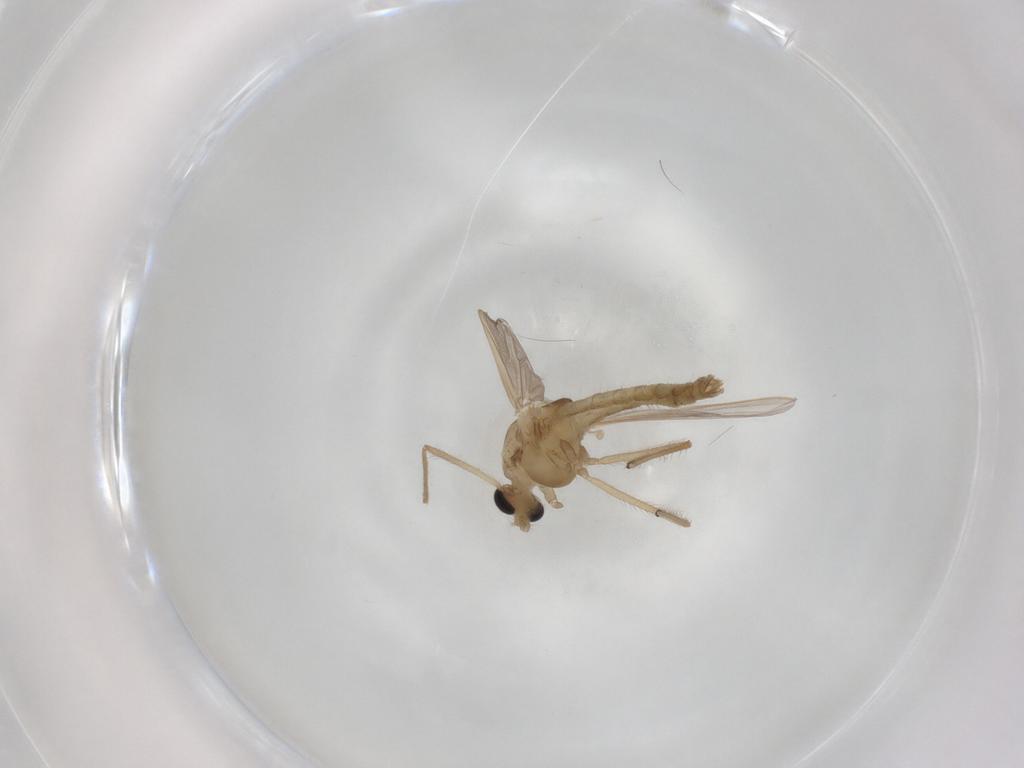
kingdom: Animalia
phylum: Arthropoda
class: Insecta
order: Diptera
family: Chironomidae
